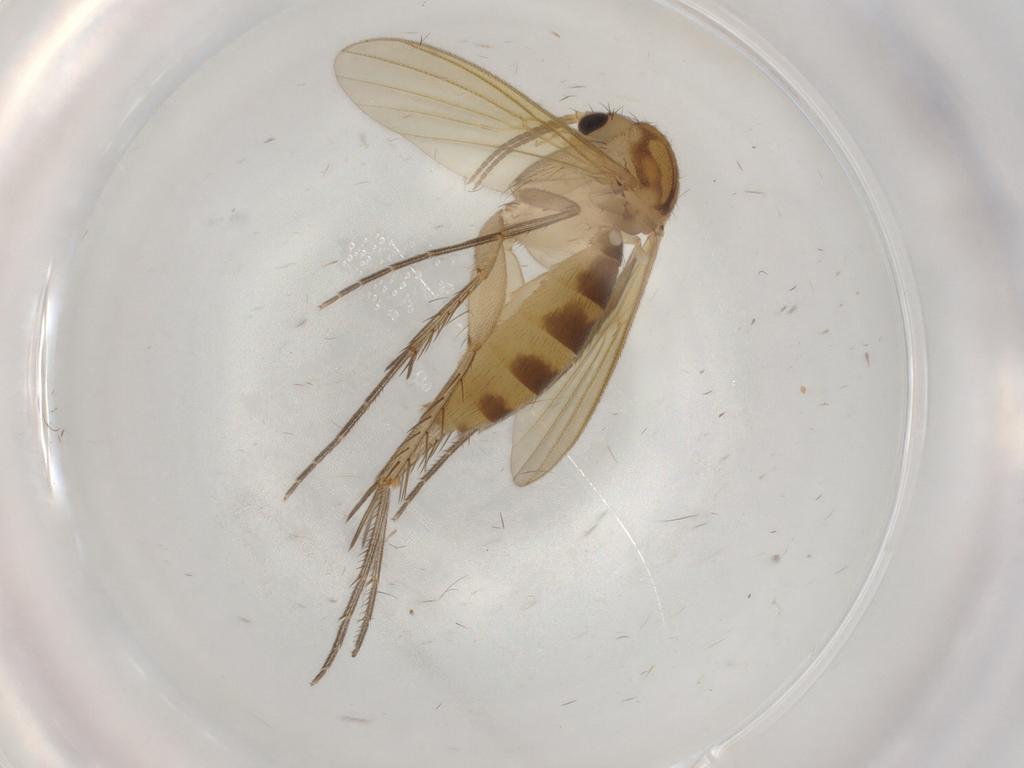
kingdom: Animalia
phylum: Arthropoda
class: Insecta
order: Diptera
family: Mycetophilidae
